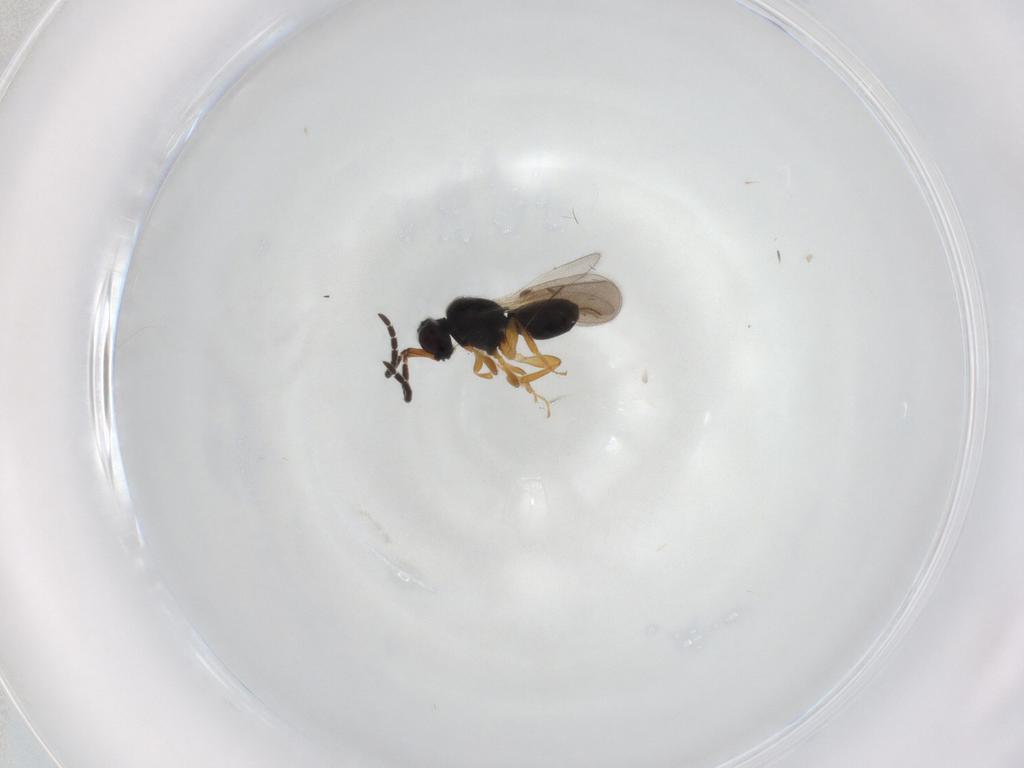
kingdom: Animalia
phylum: Arthropoda
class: Insecta
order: Hymenoptera
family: Ceraphronidae
